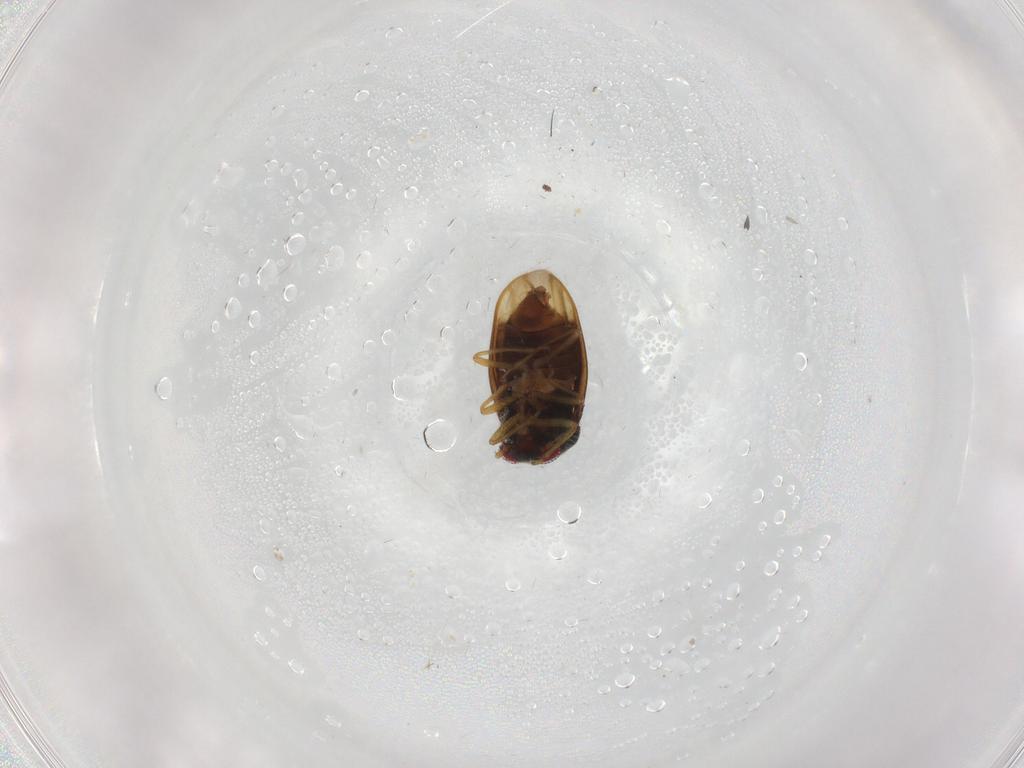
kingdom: Animalia
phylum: Arthropoda
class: Insecta
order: Hemiptera
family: Schizopteridae
